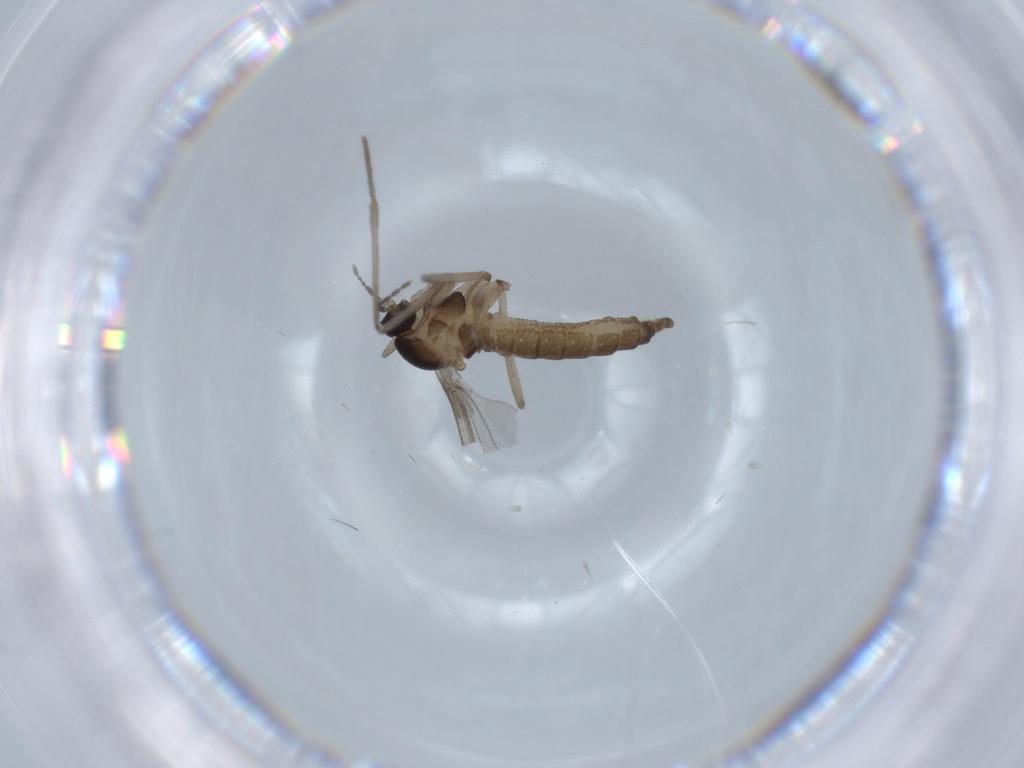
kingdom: Animalia
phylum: Arthropoda
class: Insecta
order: Diptera
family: Cecidomyiidae
